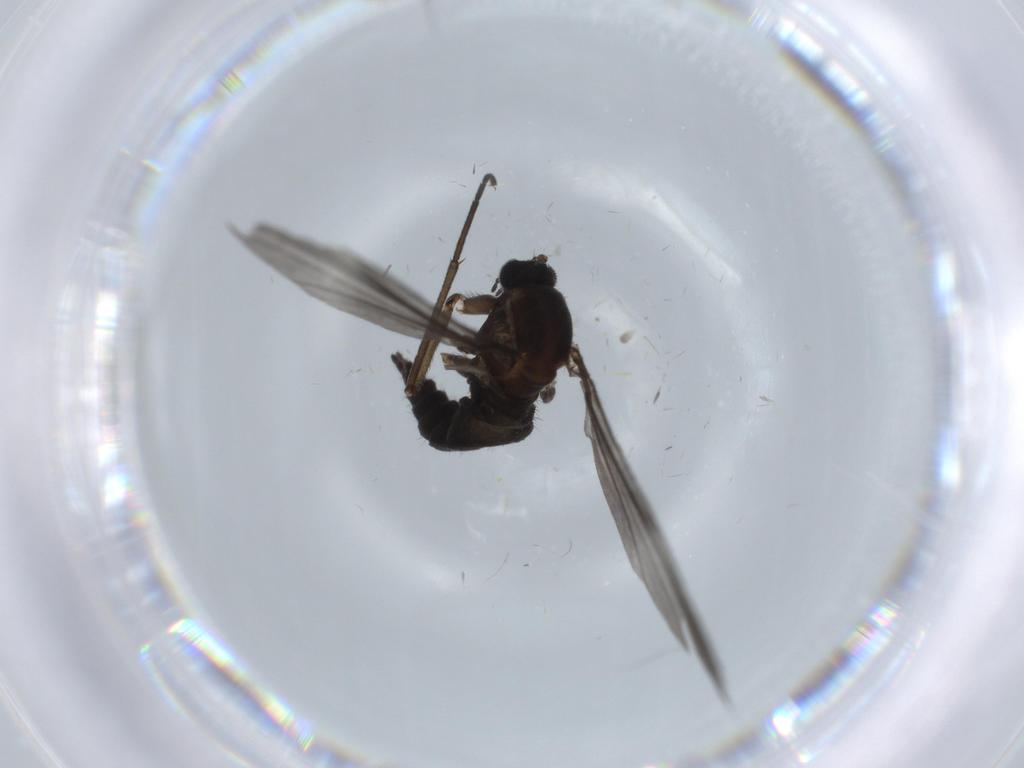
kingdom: Animalia
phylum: Arthropoda
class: Insecta
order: Diptera
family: Sciaridae
